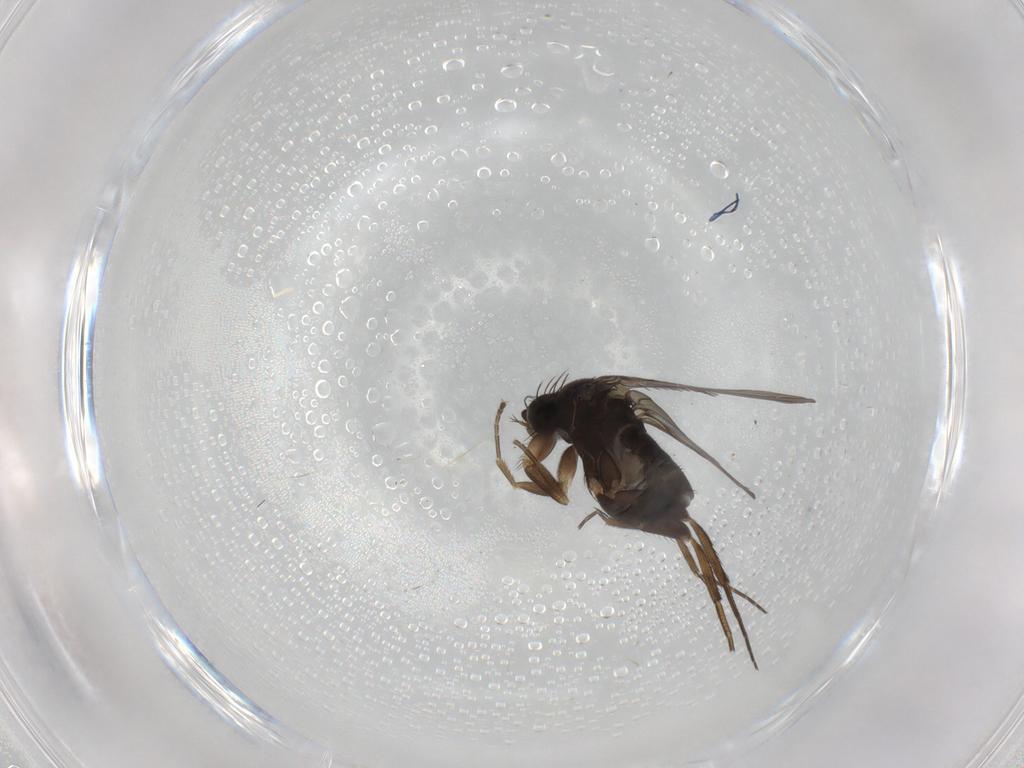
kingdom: Animalia
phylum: Arthropoda
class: Insecta
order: Diptera
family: Phoridae
